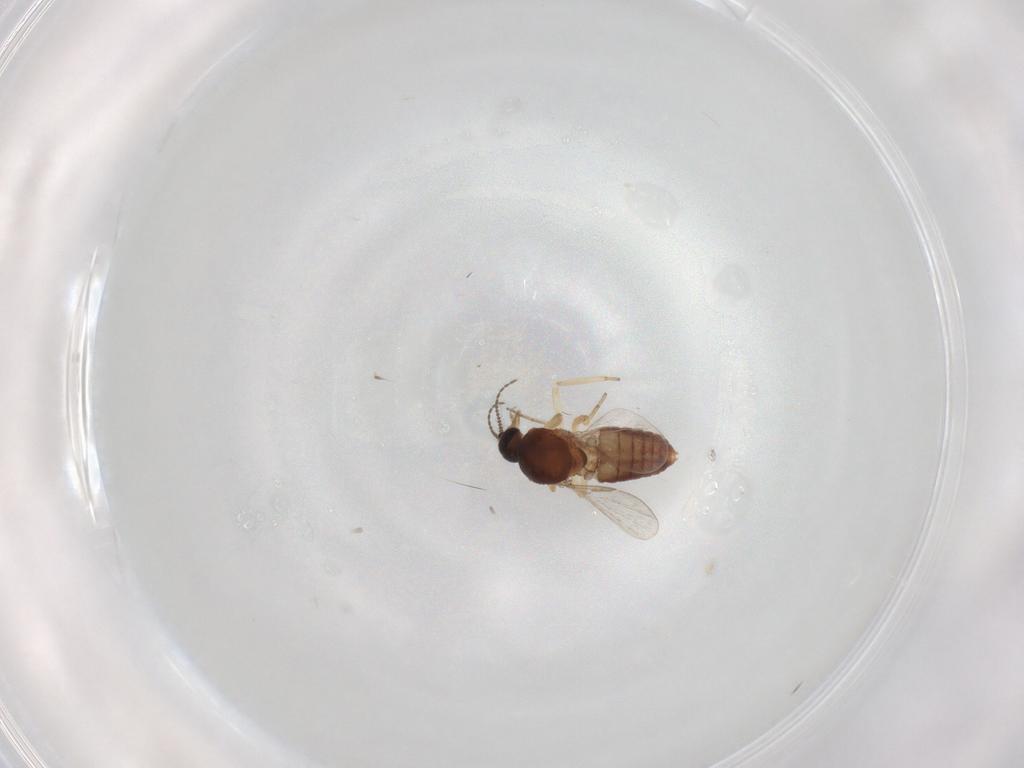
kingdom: Animalia
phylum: Arthropoda
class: Insecta
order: Diptera
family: Ceratopogonidae
